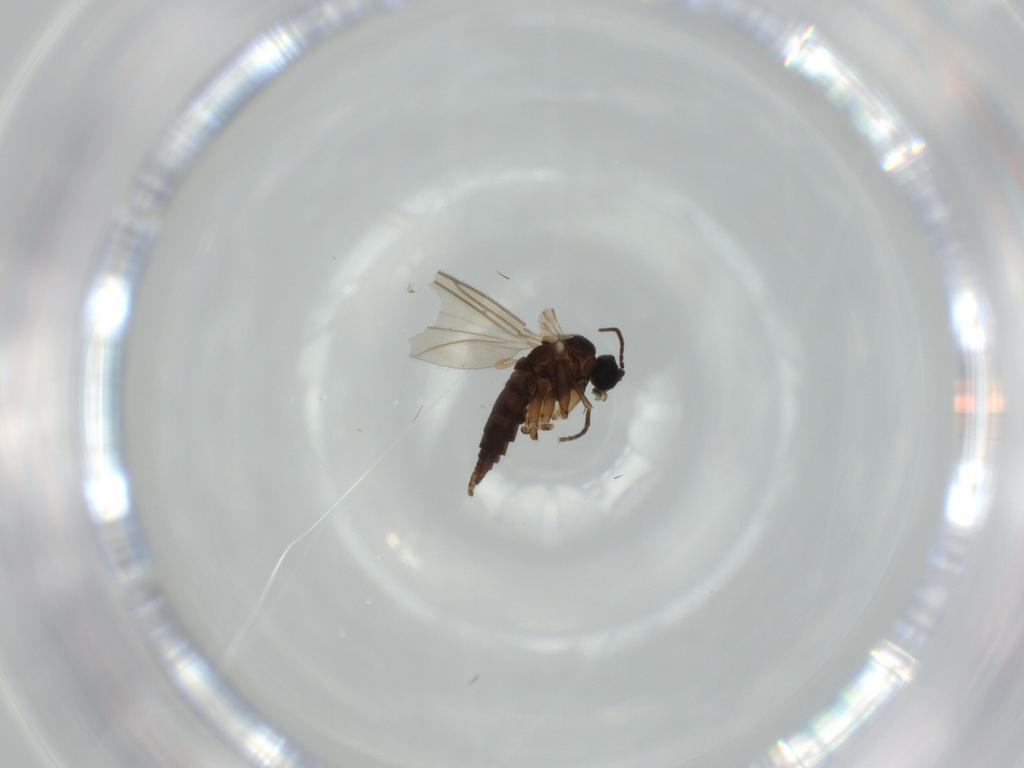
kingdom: Animalia
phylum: Arthropoda
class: Insecta
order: Diptera
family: Sciaridae
